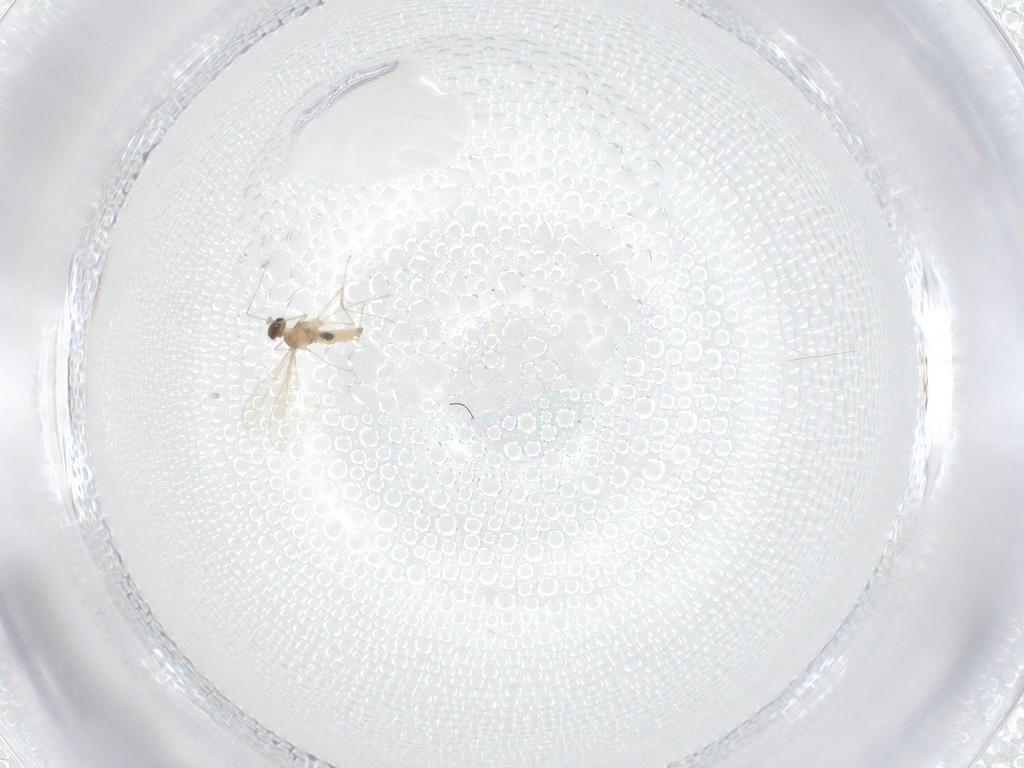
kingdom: Animalia
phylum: Arthropoda
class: Insecta
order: Diptera
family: Cecidomyiidae
